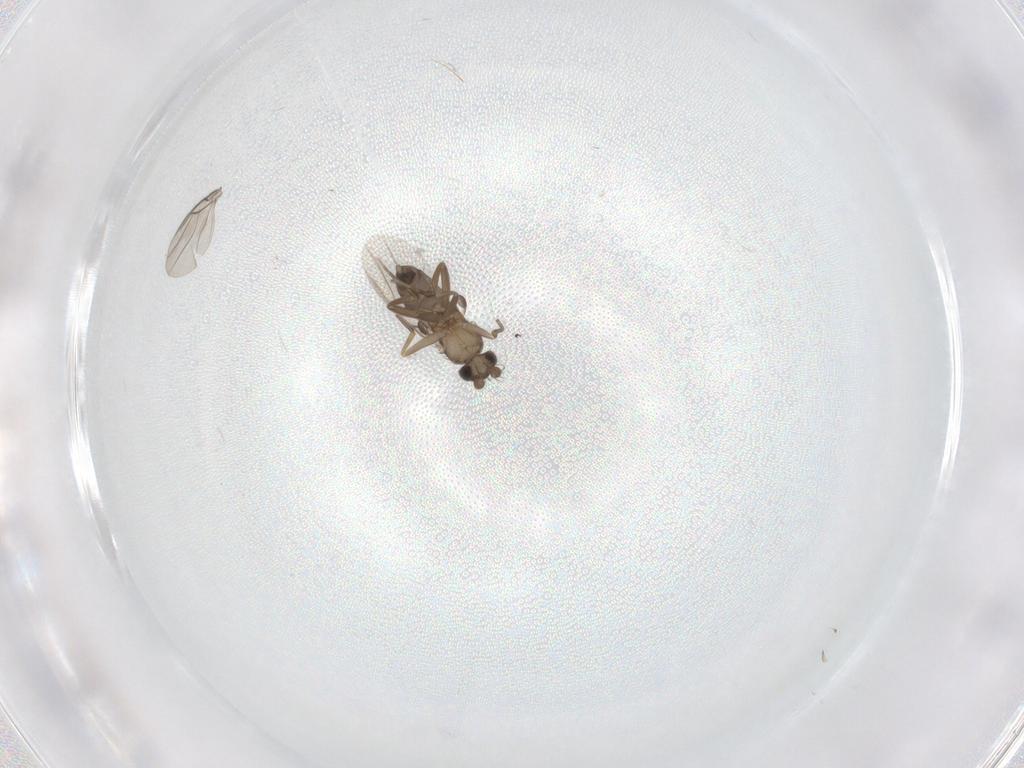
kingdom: Animalia
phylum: Arthropoda
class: Insecta
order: Diptera
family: Phoridae
